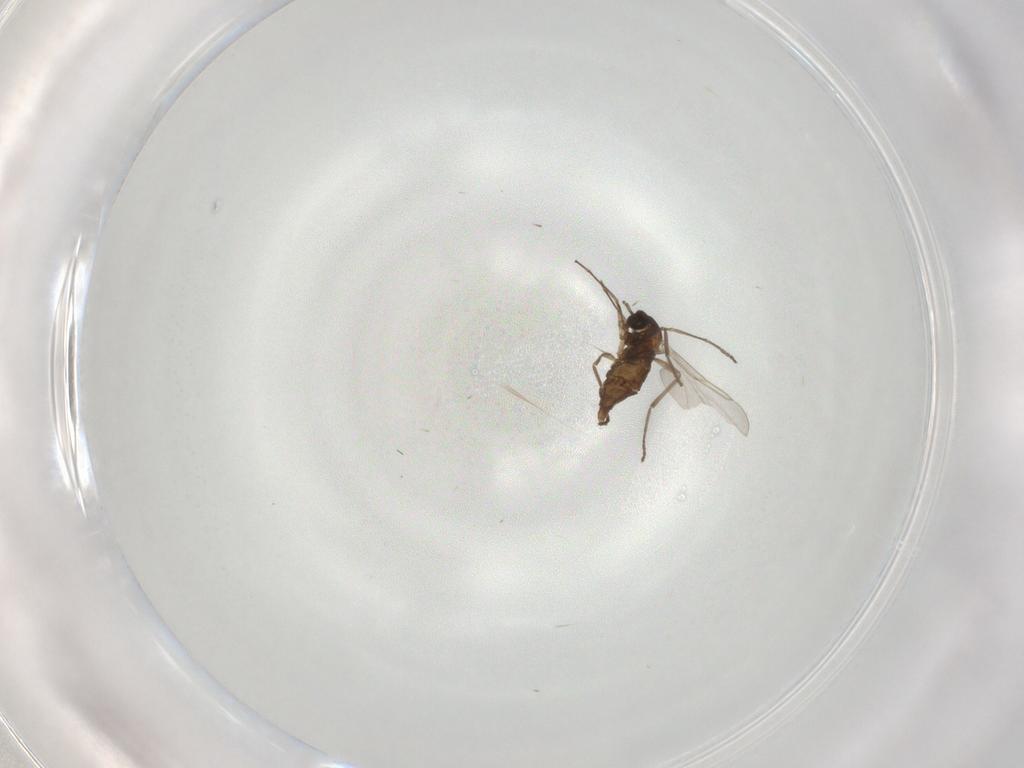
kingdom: Animalia
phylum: Arthropoda
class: Insecta
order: Diptera
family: Cecidomyiidae
